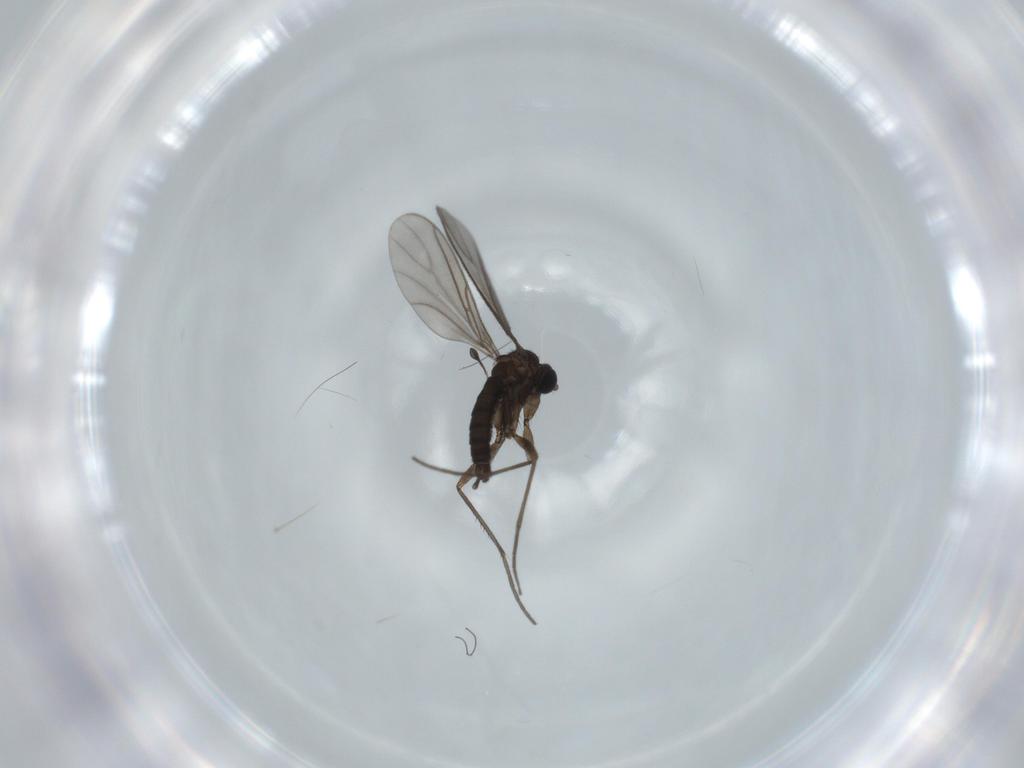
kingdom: Animalia
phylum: Arthropoda
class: Insecta
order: Diptera
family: Sciaridae
